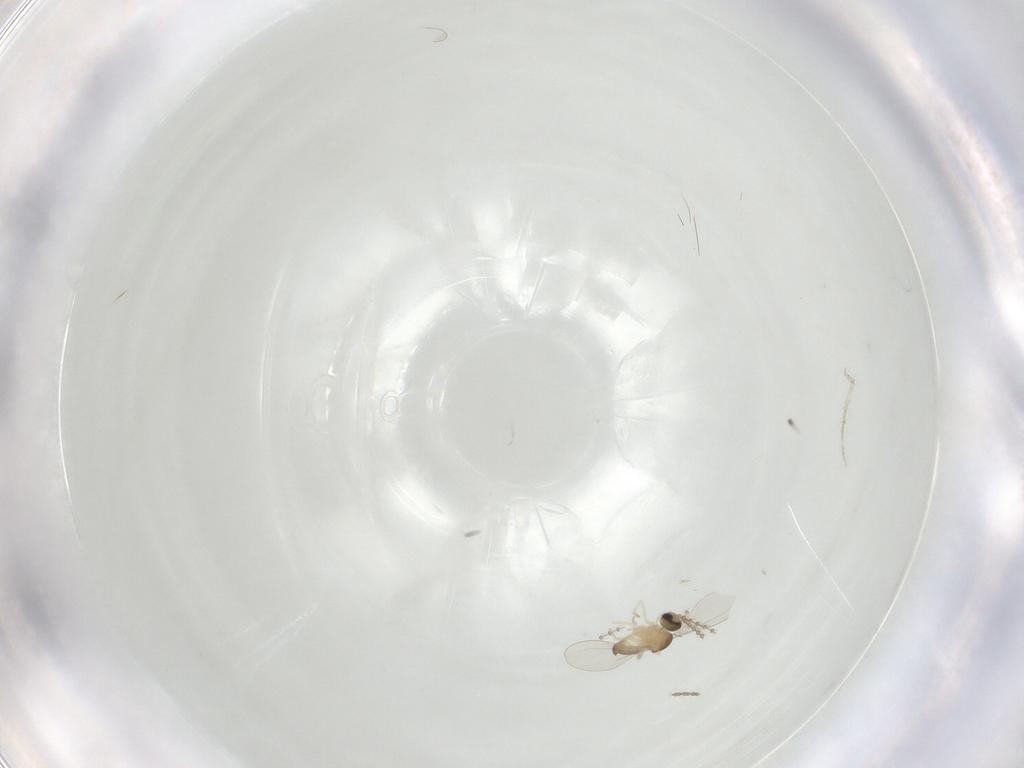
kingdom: Animalia
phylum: Arthropoda
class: Insecta
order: Diptera
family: Cecidomyiidae
